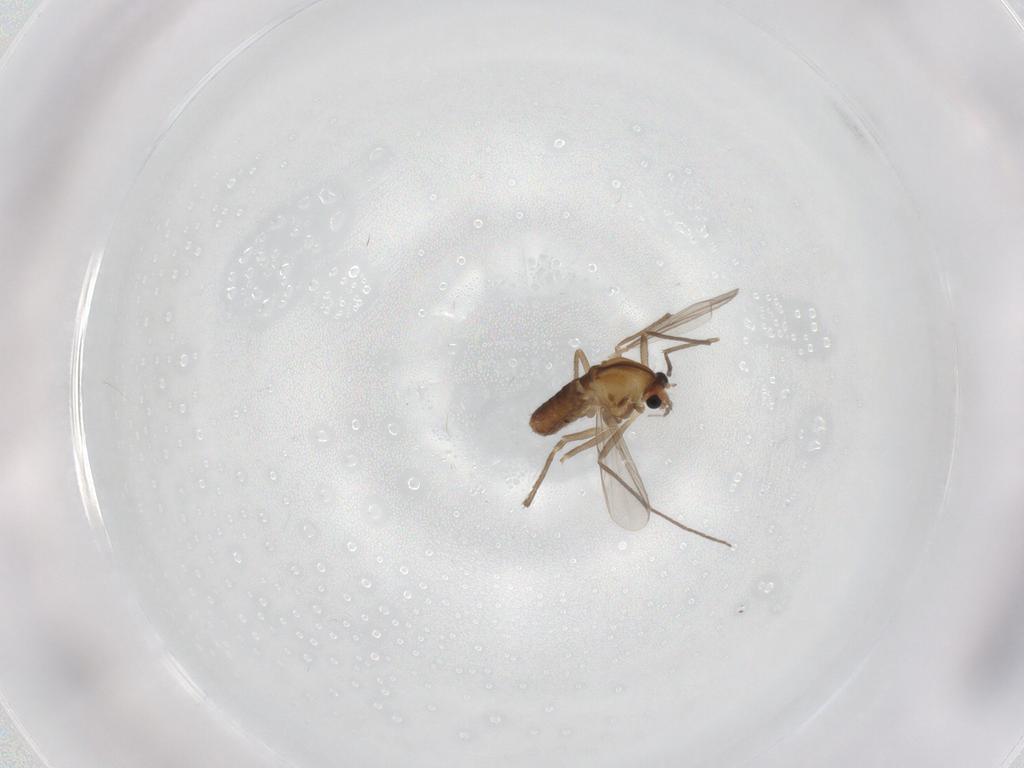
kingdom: Animalia
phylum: Arthropoda
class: Insecta
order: Diptera
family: Chironomidae
